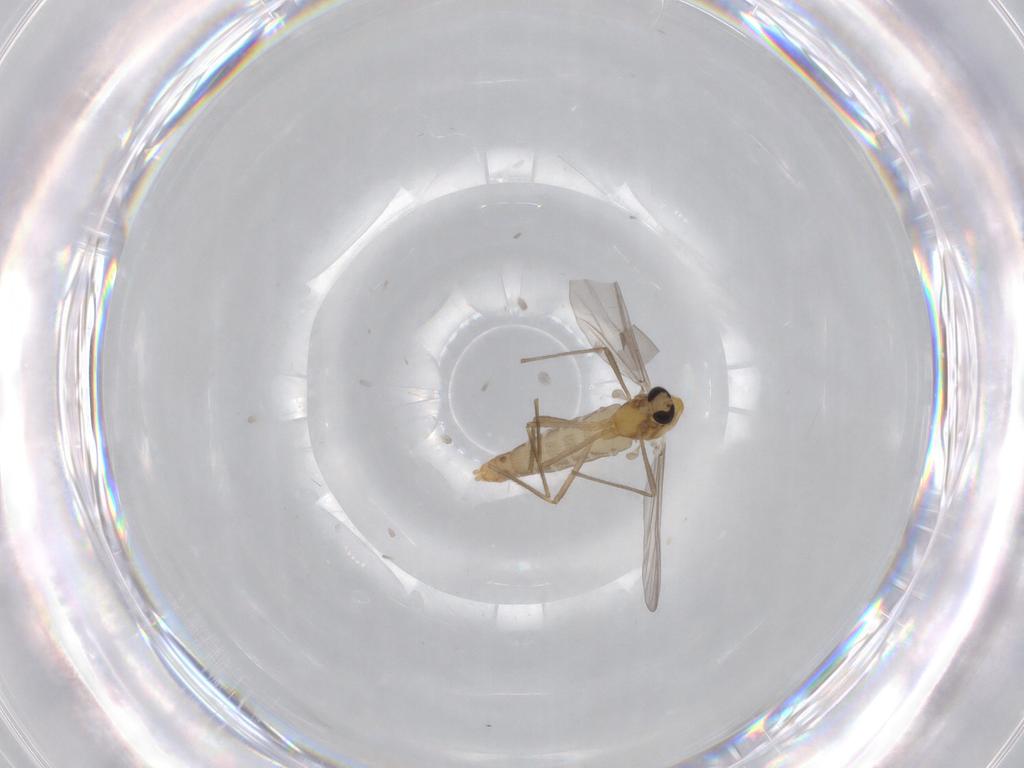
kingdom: Animalia
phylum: Arthropoda
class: Insecta
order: Diptera
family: Chironomidae
